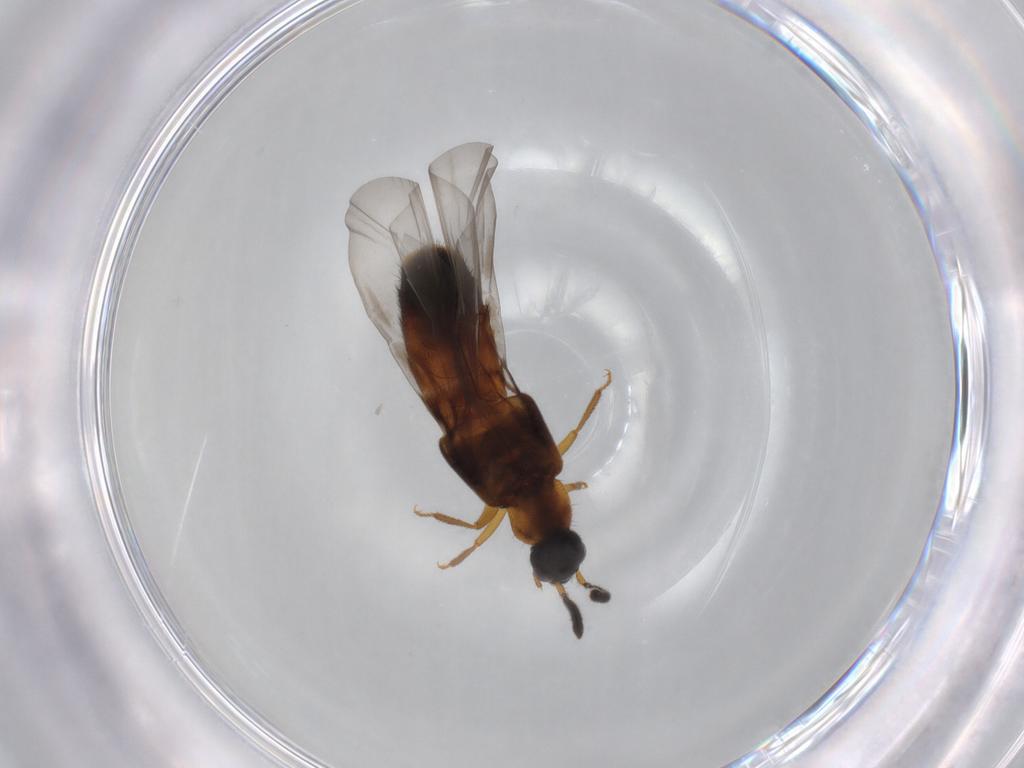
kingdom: Animalia
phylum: Arthropoda
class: Insecta
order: Coleoptera
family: Staphylinidae
